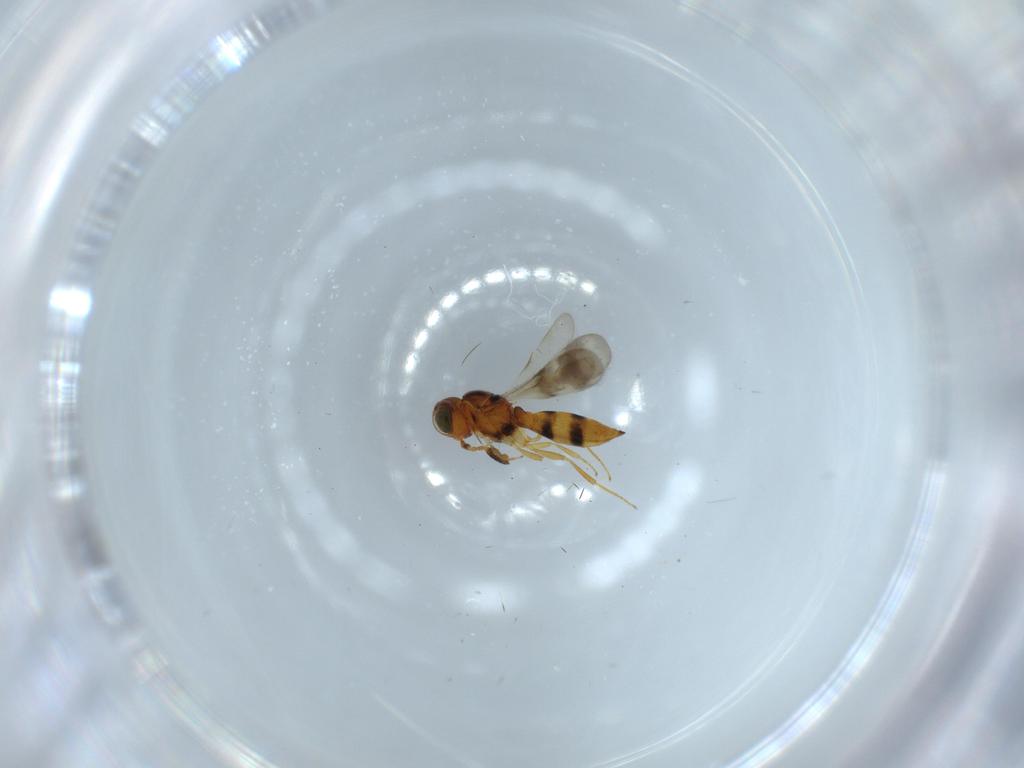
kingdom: Animalia
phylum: Arthropoda
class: Insecta
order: Hymenoptera
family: Scelionidae
